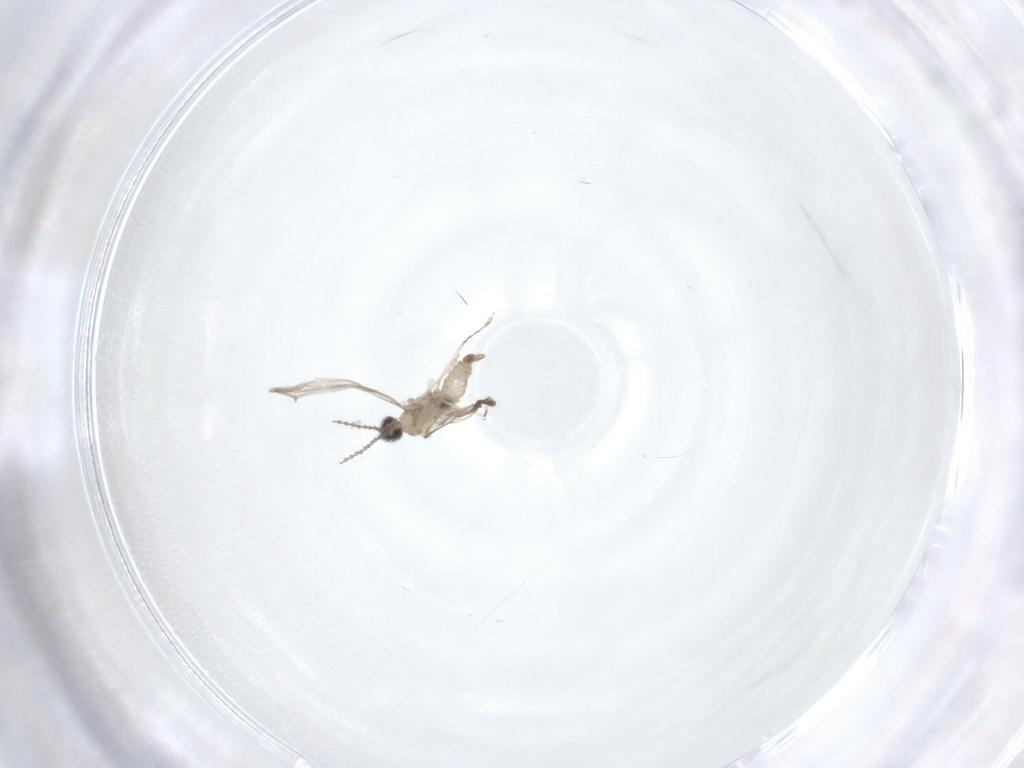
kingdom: Animalia
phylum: Arthropoda
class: Insecta
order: Diptera
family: Cecidomyiidae
